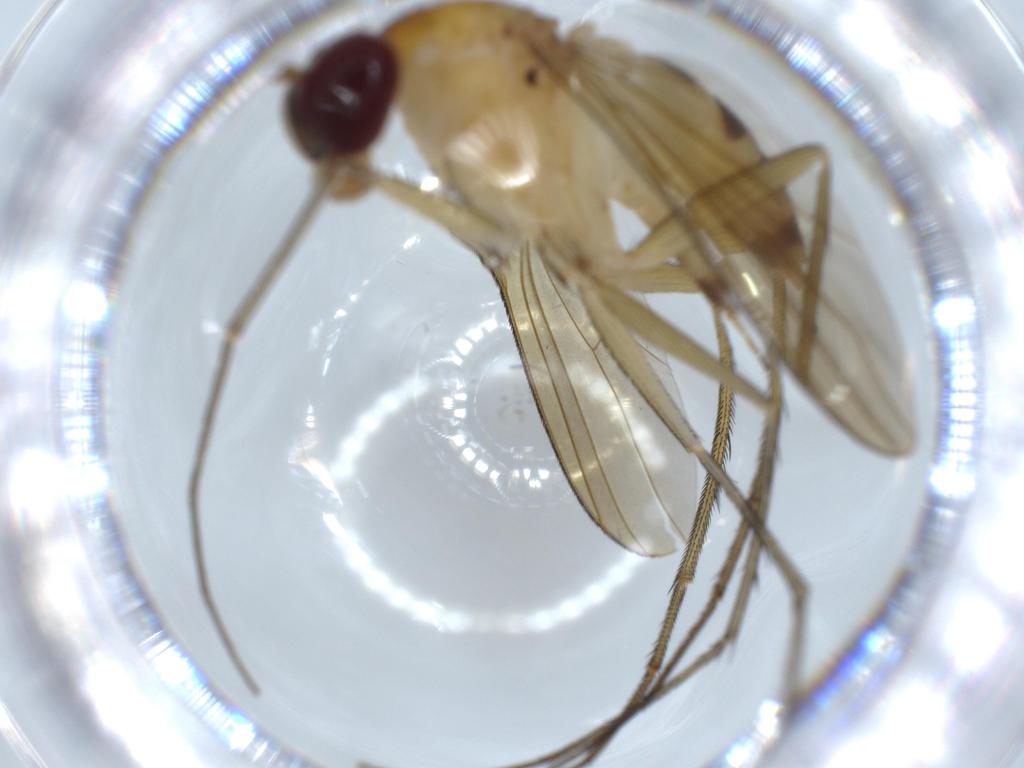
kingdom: Animalia
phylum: Arthropoda
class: Insecta
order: Diptera
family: Dolichopodidae
